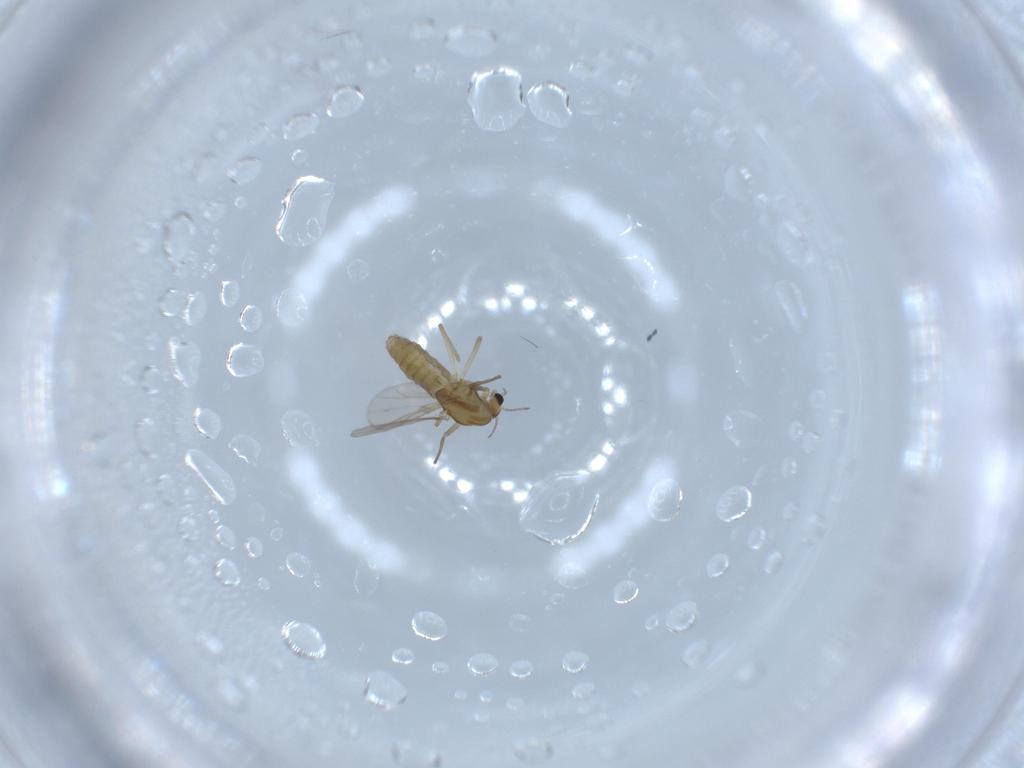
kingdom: Animalia
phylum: Arthropoda
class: Insecta
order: Diptera
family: Chironomidae
